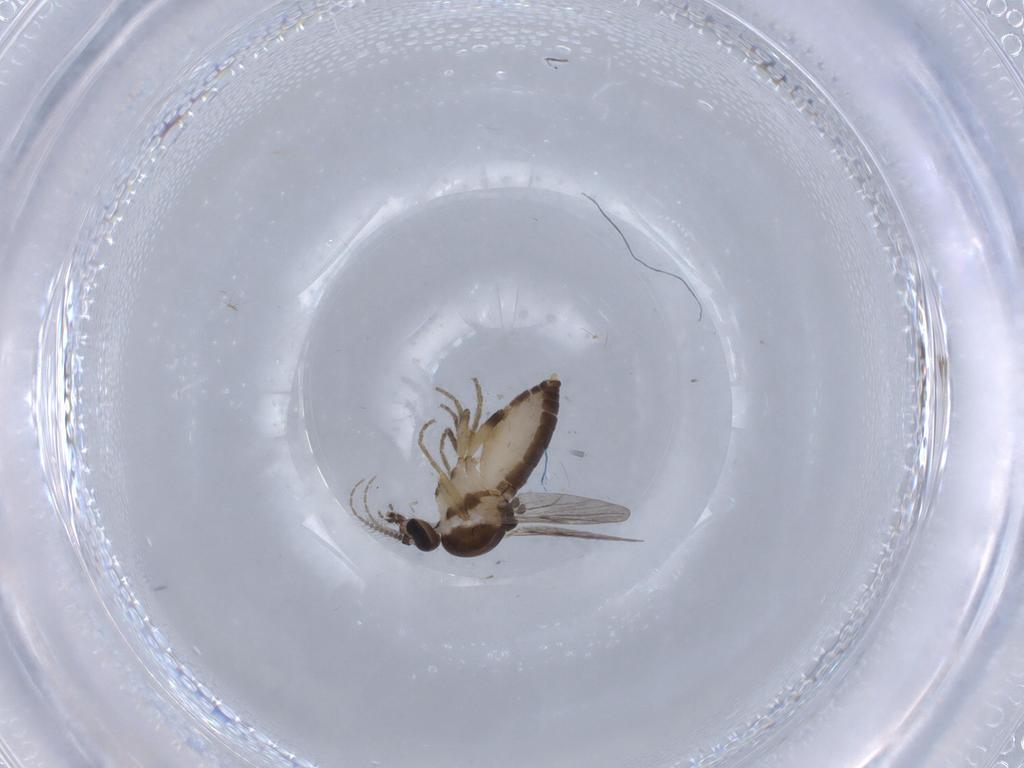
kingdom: Animalia
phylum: Arthropoda
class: Insecta
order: Diptera
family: Ceratopogonidae
